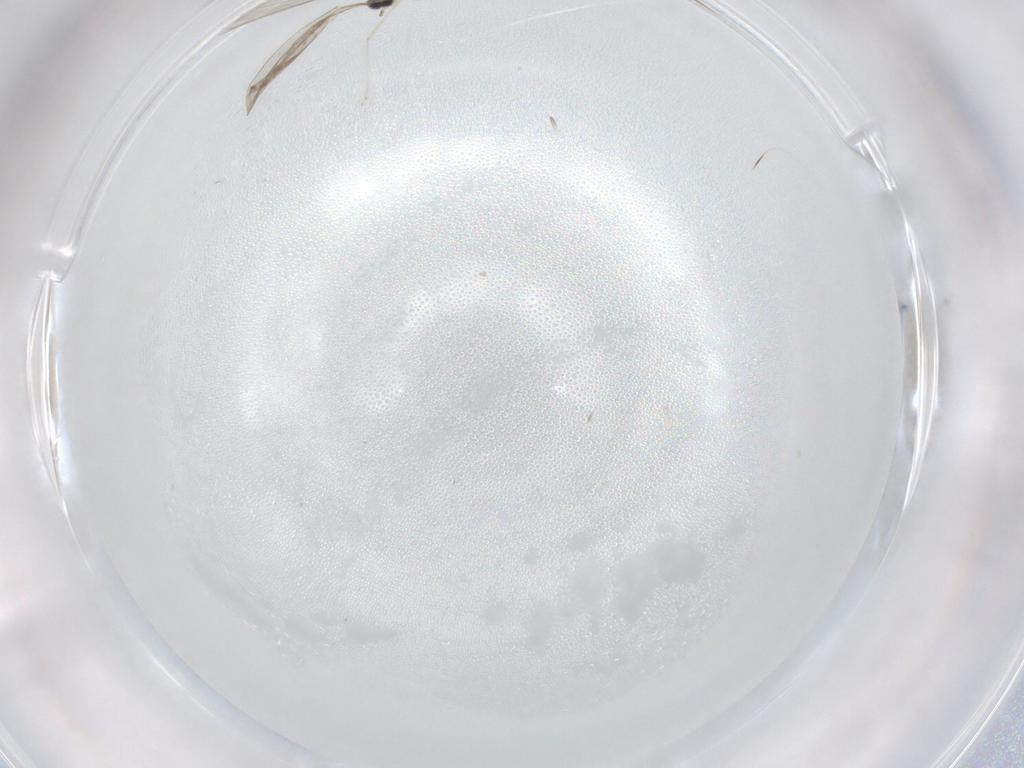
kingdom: Animalia
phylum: Arthropoda
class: Insecta
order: Diptera
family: Cecidomyiidae
